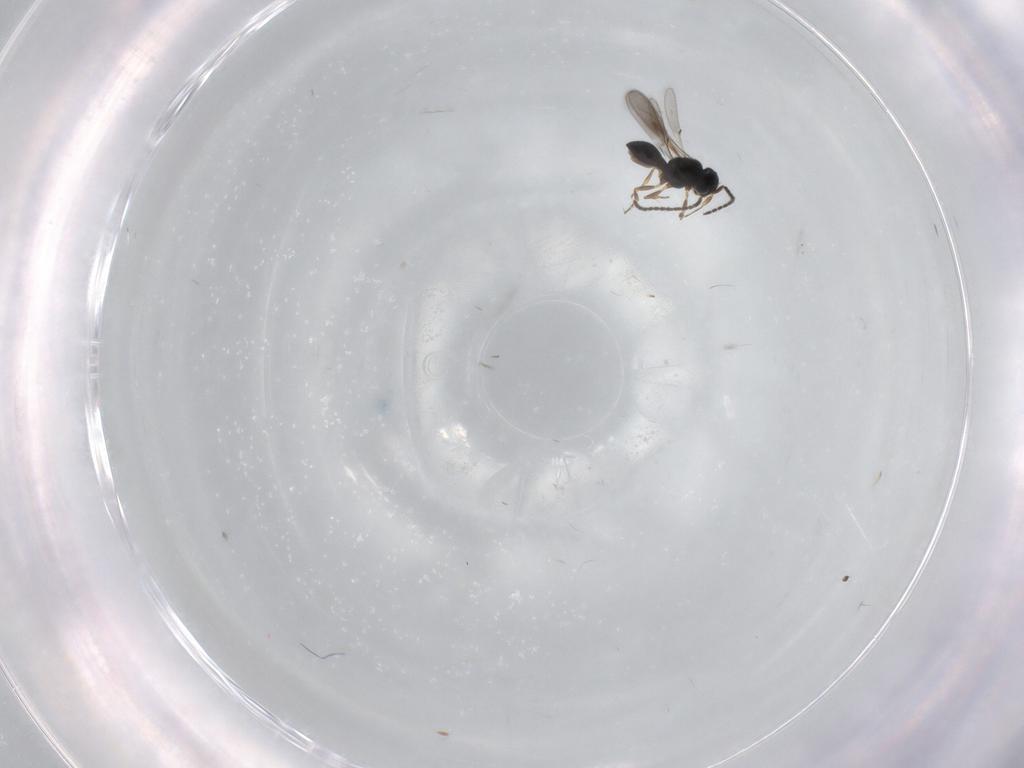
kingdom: Animalia
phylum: Arthropoda
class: Insecta
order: Hymenoptera
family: Scelionidae
